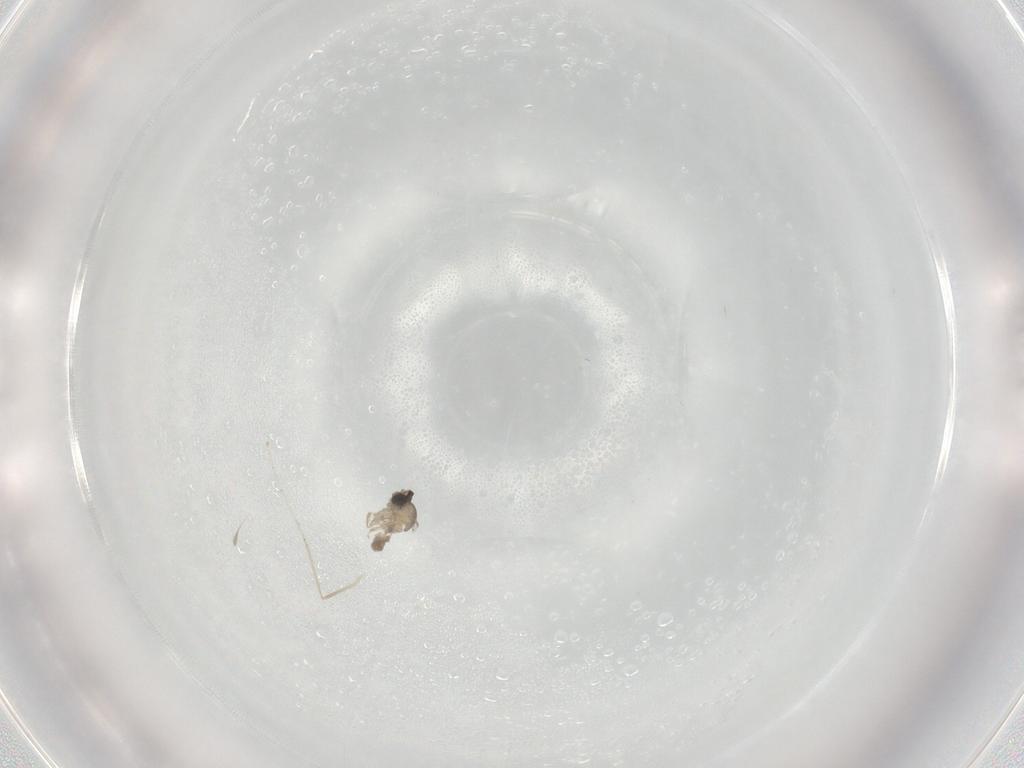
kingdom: Animalia
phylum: Arthropoda
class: Insecta
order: Diptera
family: Cecidomyiidae
